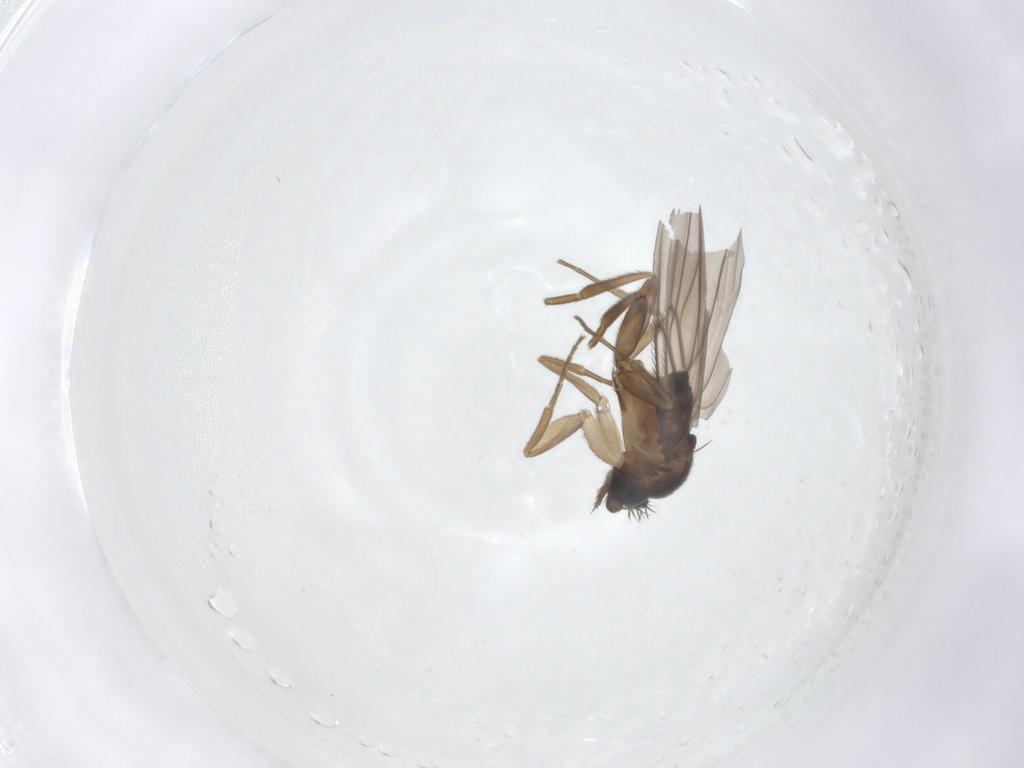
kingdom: Animalia
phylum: Arthropoda
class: Insecta
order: Diptera
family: Phoridae
